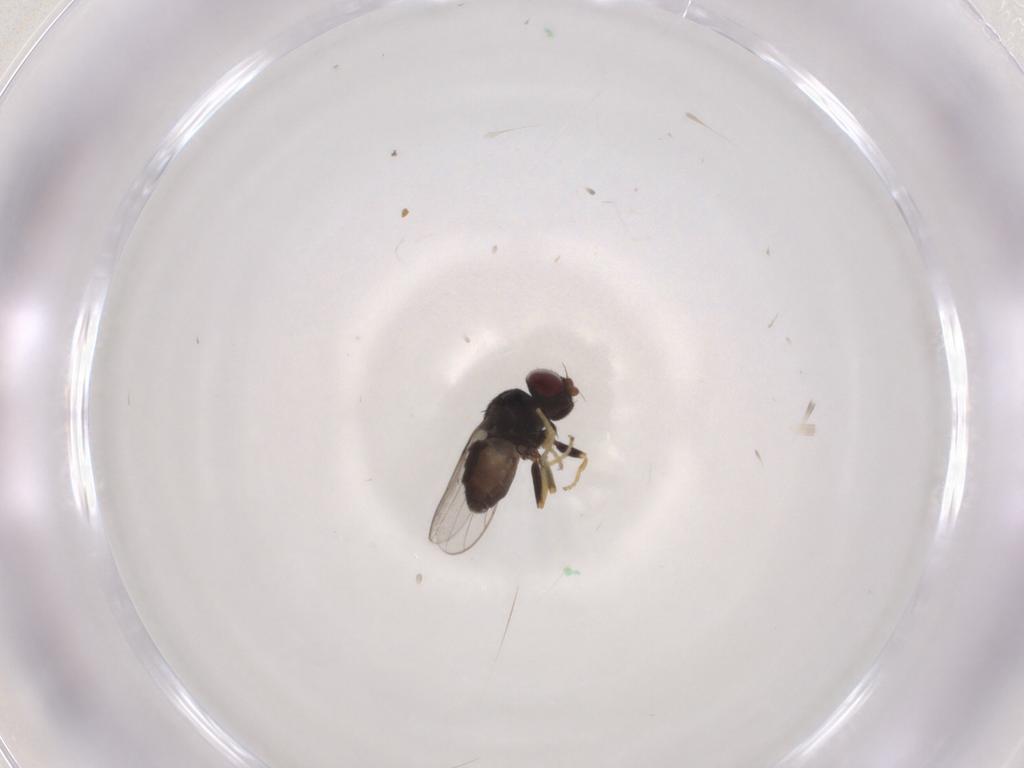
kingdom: Animalia
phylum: Arthropoda
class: Insecta
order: Diptera
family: Chloropidae
